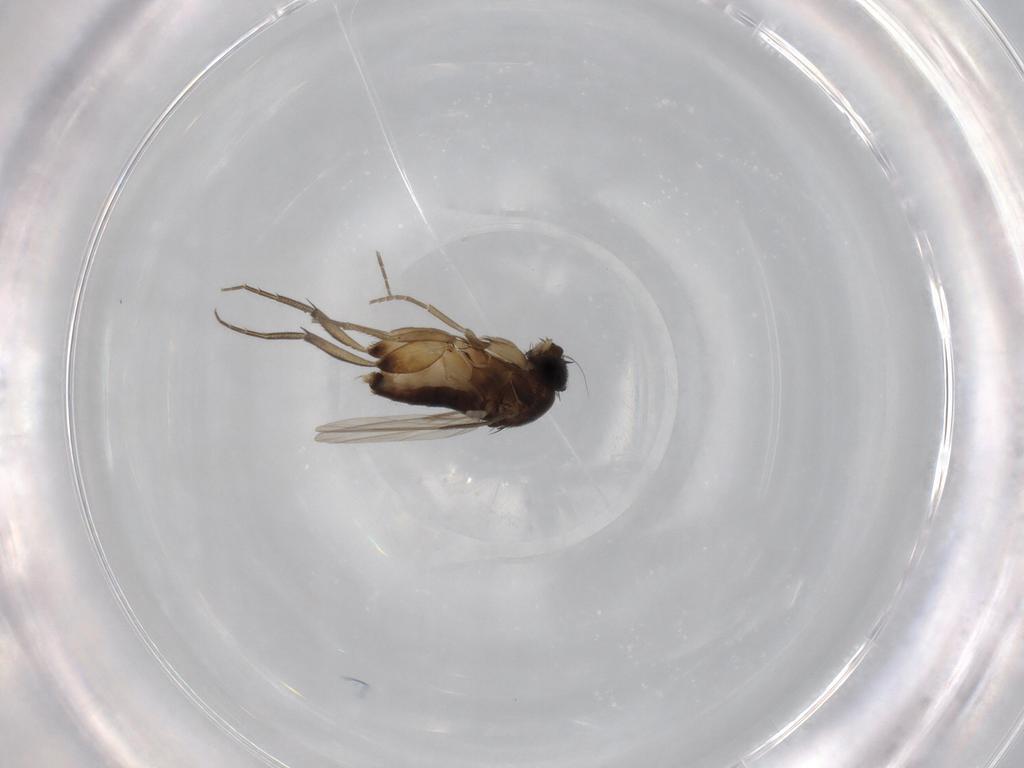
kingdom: Animalia
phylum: Arthropoda
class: Insecta
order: Diptera
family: Phoridae
